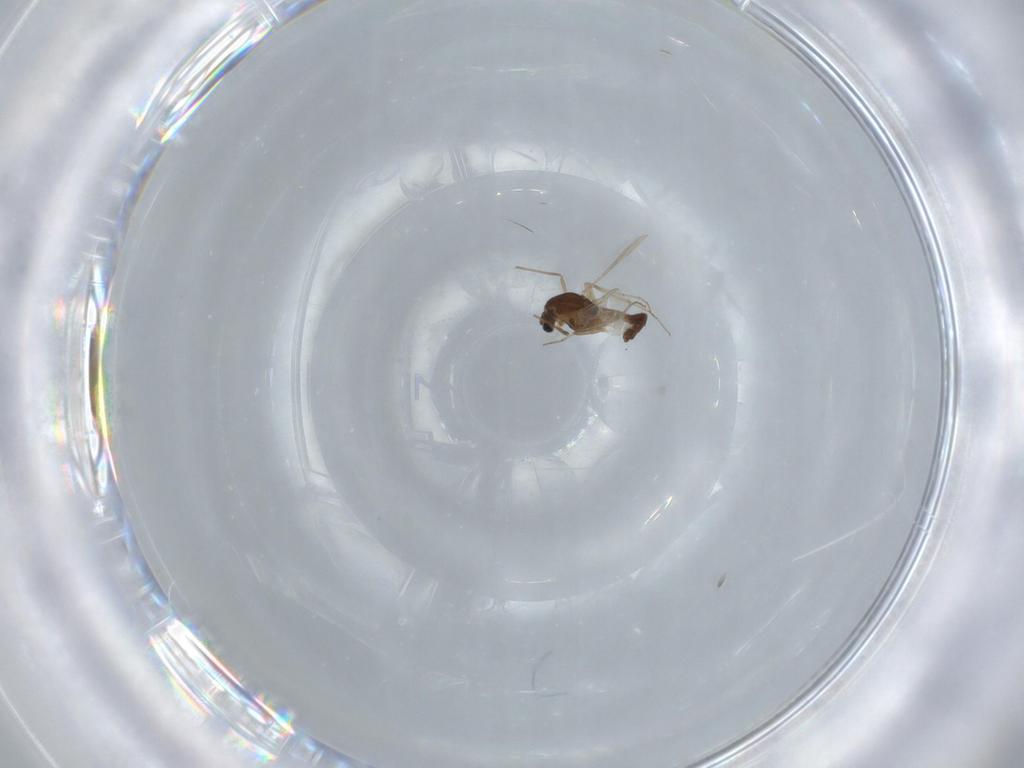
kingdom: Animalia
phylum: Arthropoda
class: Insecta
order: Diptera
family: Chironomidae
